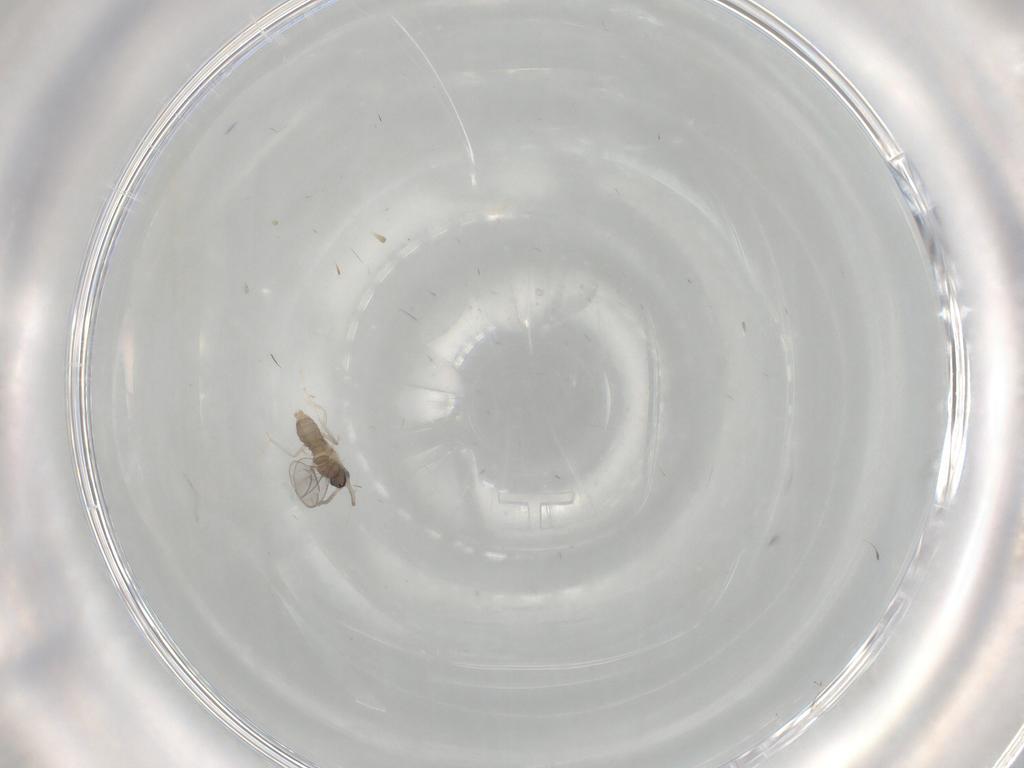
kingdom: Animalia
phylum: Arthropoda
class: Insecta
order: Diptera
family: Cecidomyiidae
